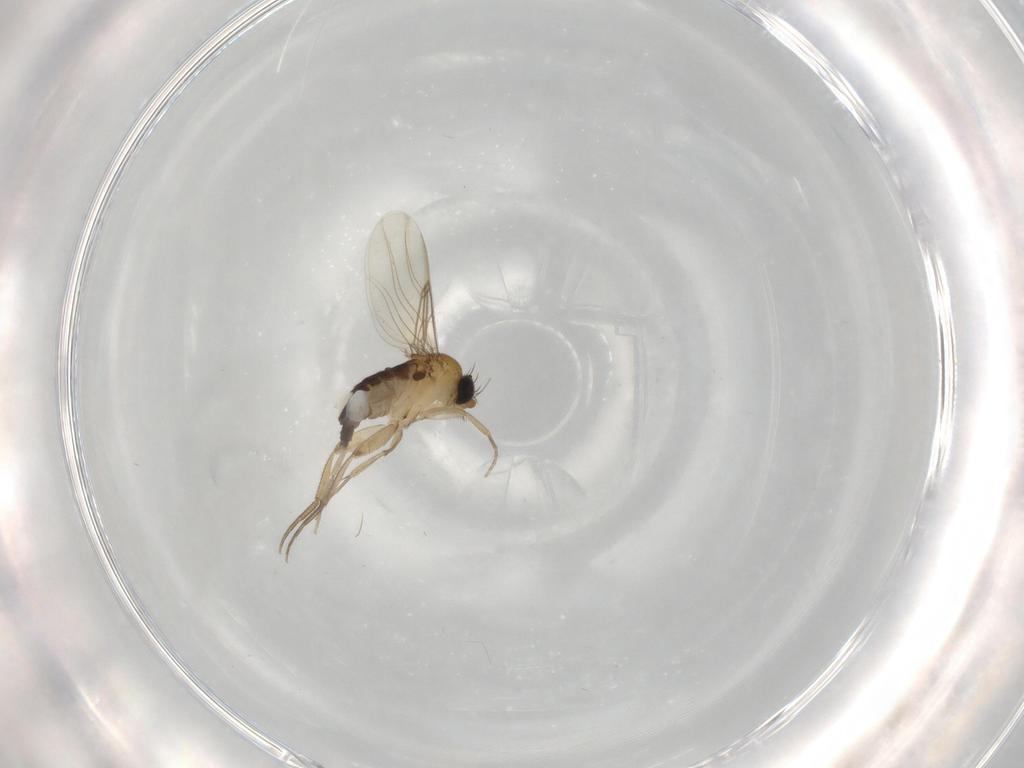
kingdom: Animalia
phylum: Arthropoda
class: Insecta
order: Diptera
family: Phoridae
